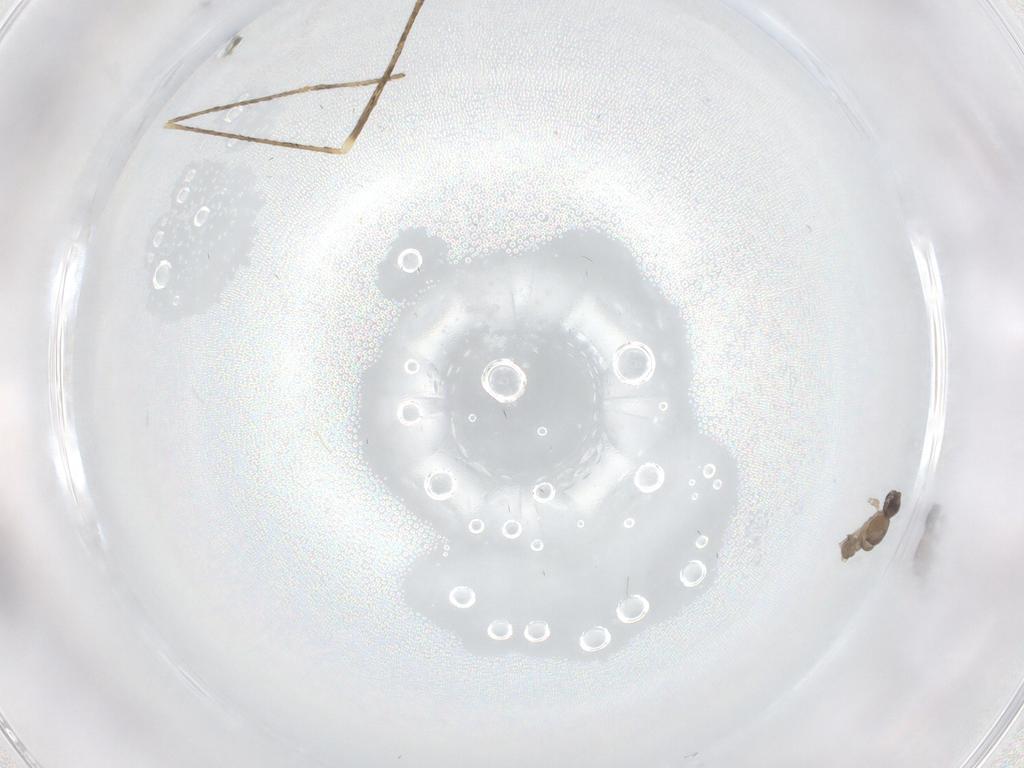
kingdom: Animalia
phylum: Arthropoda
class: Insecta
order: Diptera
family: Cecidomyiidae
